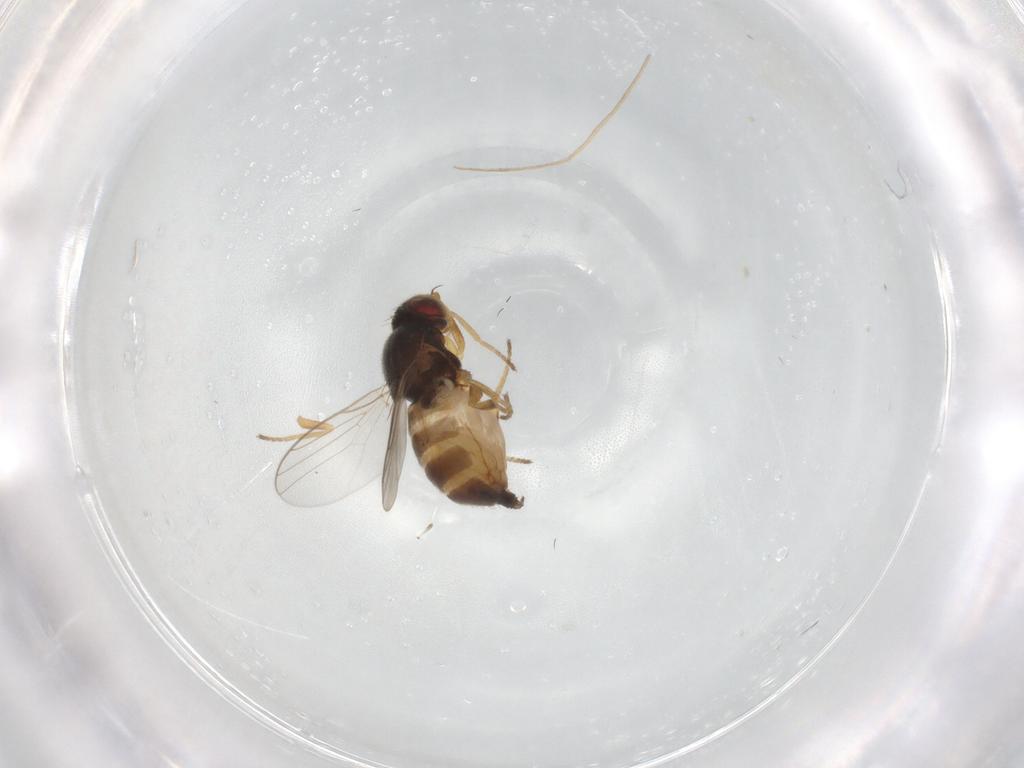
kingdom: Animalia
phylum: Arthropoda
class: Insecta
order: Diptera
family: Chloropidae
